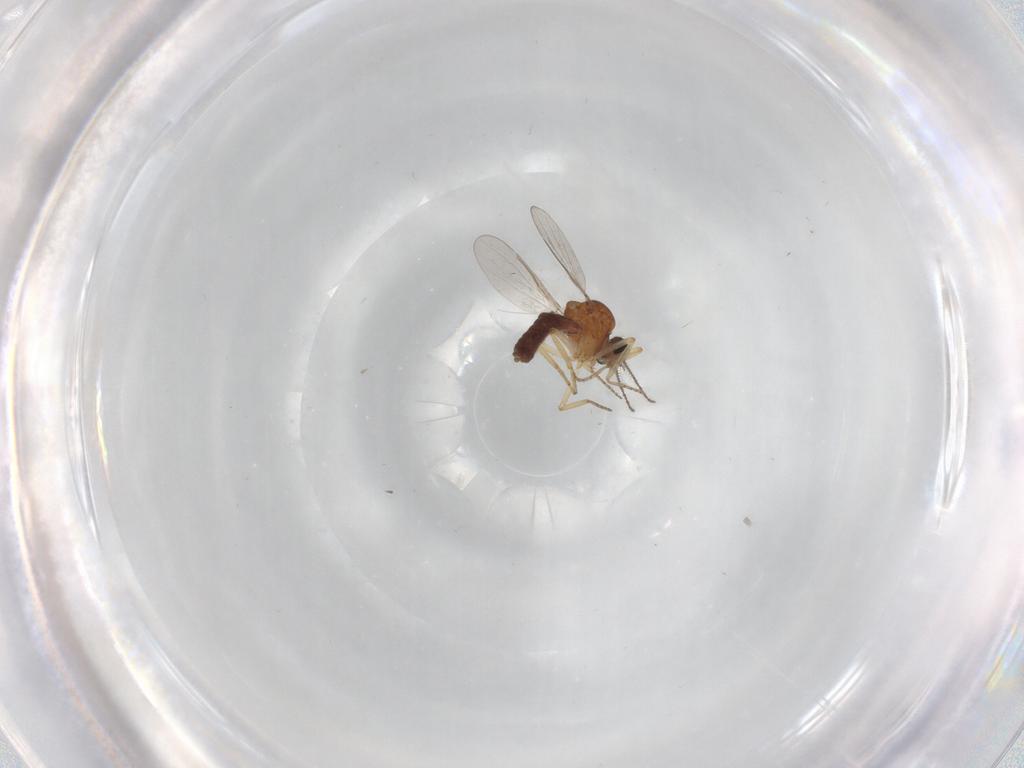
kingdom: Animalia
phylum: Arthropoda
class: Insecta
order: Diptera
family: Ceratopogonidae
